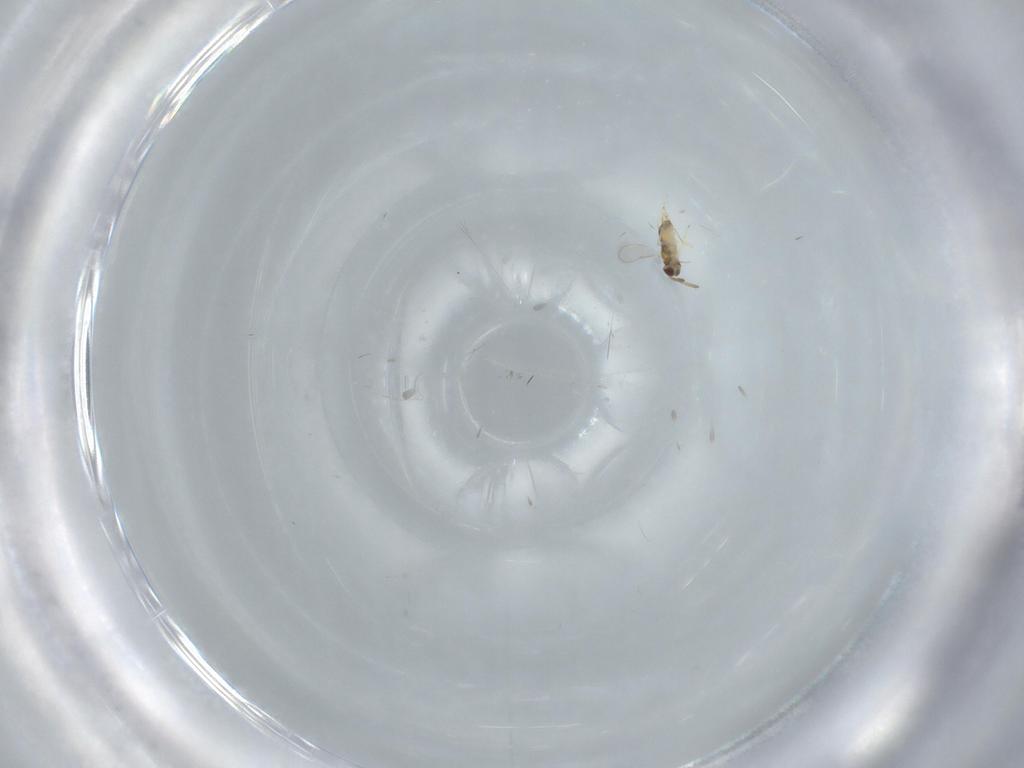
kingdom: Animalia
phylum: Arthropoda
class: Insecta
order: Hymenoptera
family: Aphelinidae
